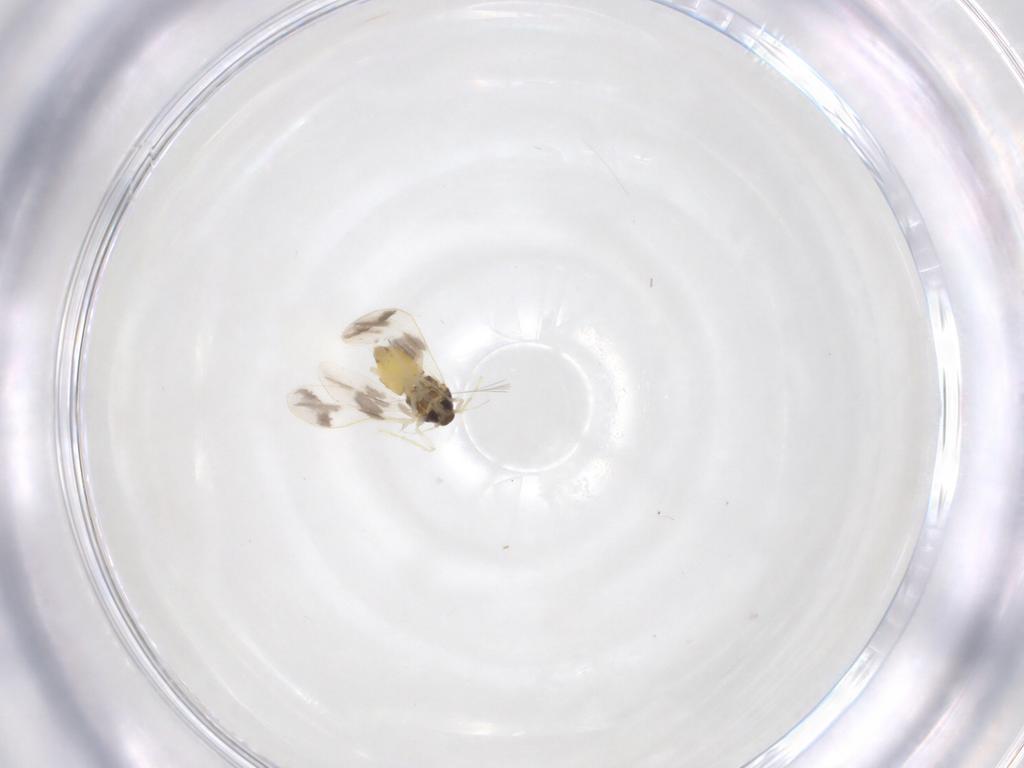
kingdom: Animalia
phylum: Arthropoda
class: Insecta
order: Hemiptera
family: Aleyrodidae
